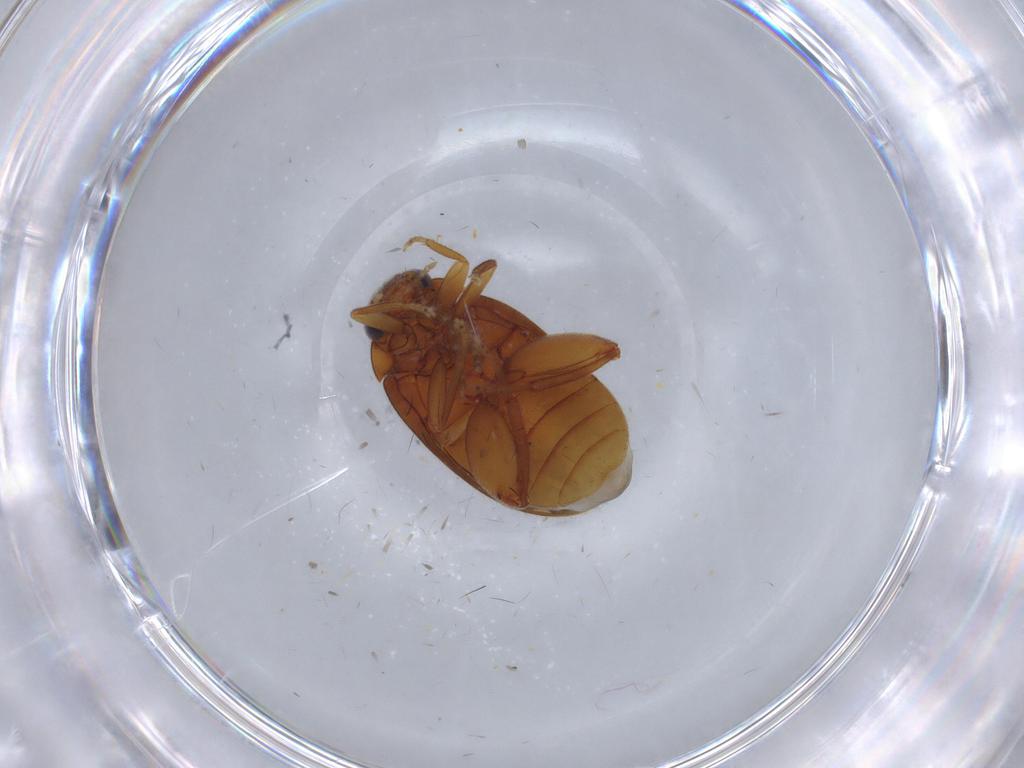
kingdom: Animalia
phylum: Arthropoda
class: Insecta
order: Coleoptera
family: Scirtidae
